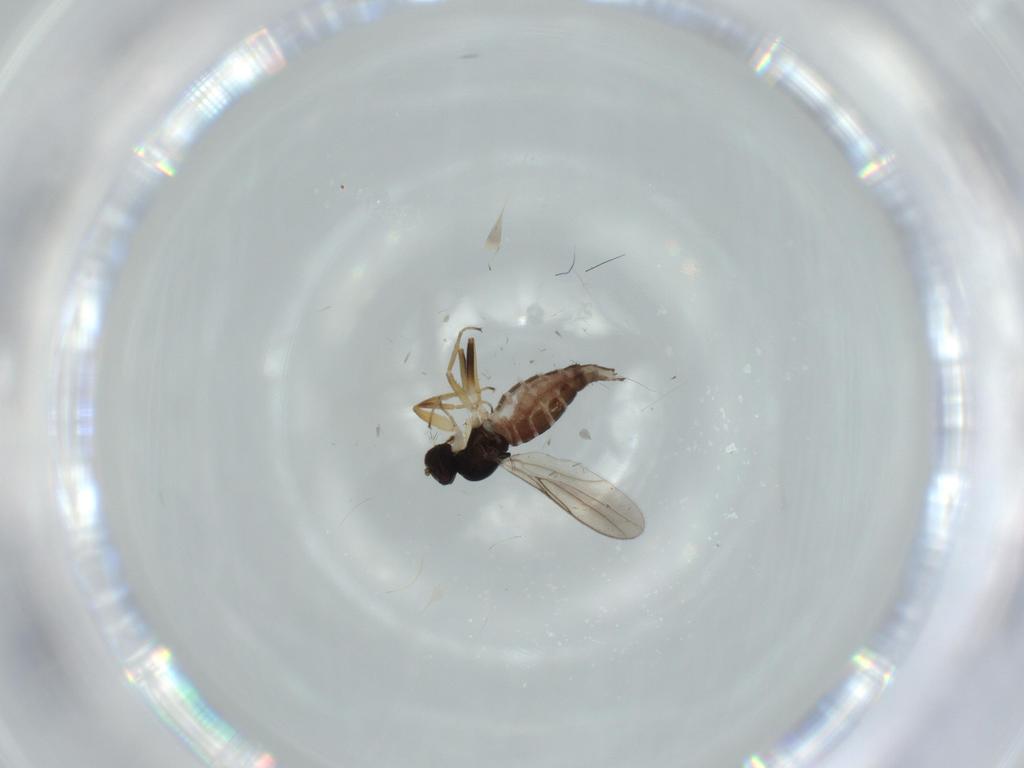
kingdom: Animalia
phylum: Arthropoda
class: Insecta
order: Diptera
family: Hybotidae
